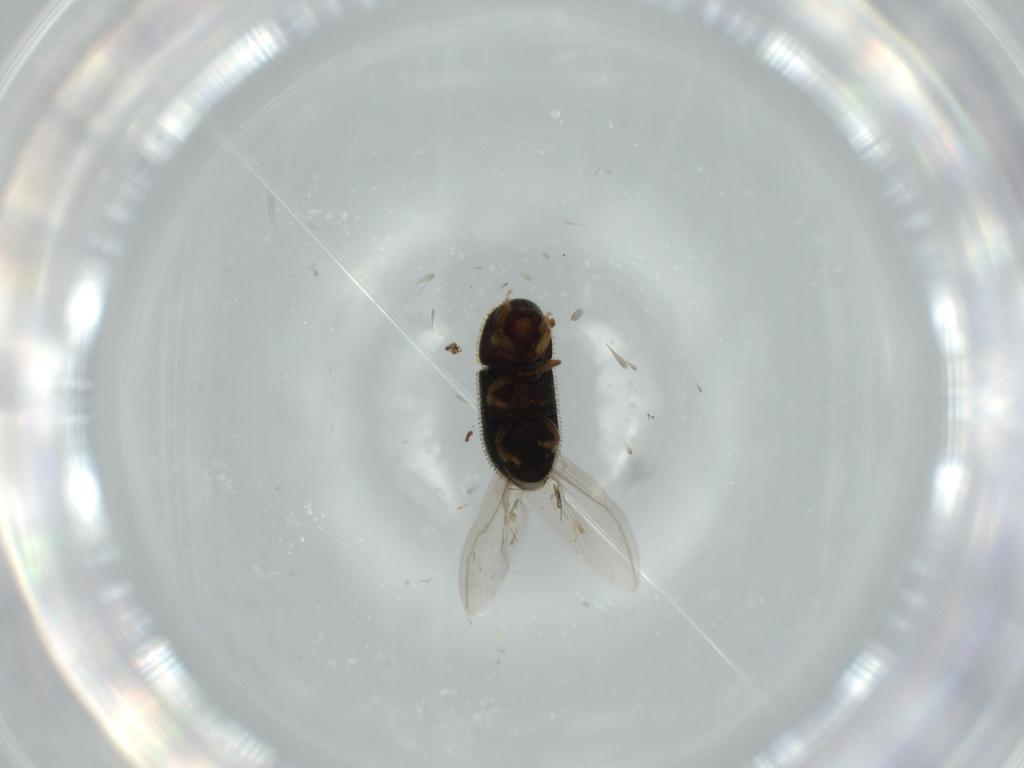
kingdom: Animalia
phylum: Arthropoda
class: Insecta
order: Coleoptera
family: Curculionidae
